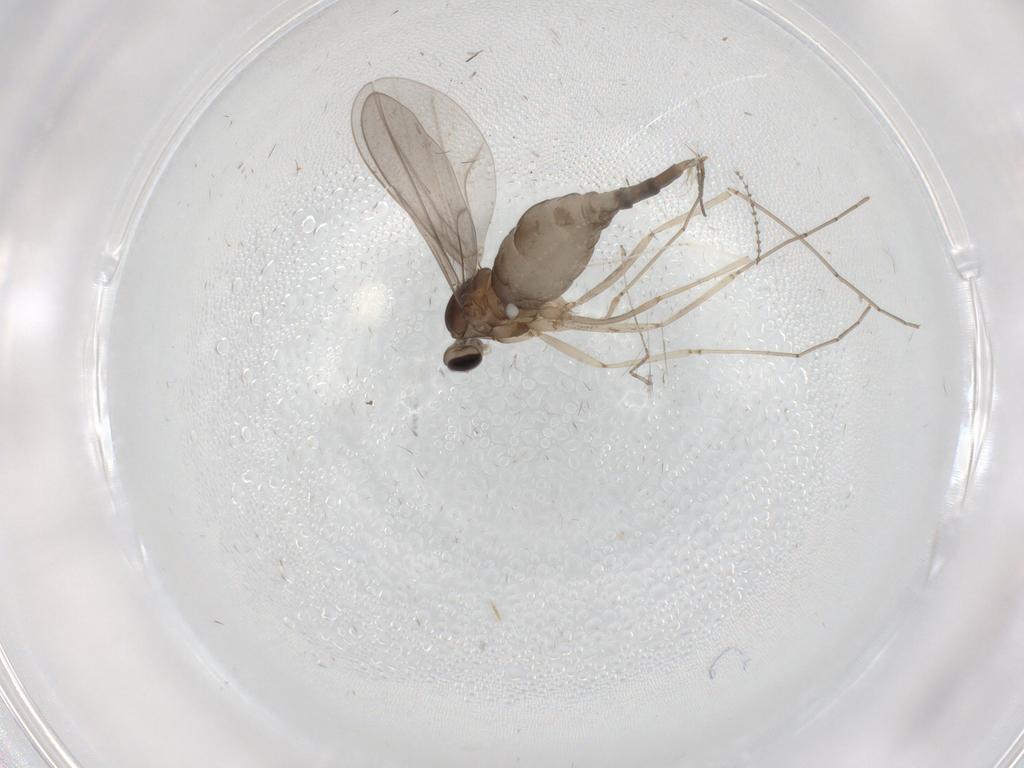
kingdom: Animalia
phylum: Arthropoda
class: Insecta
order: Diptera
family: Cecidomyiidae
